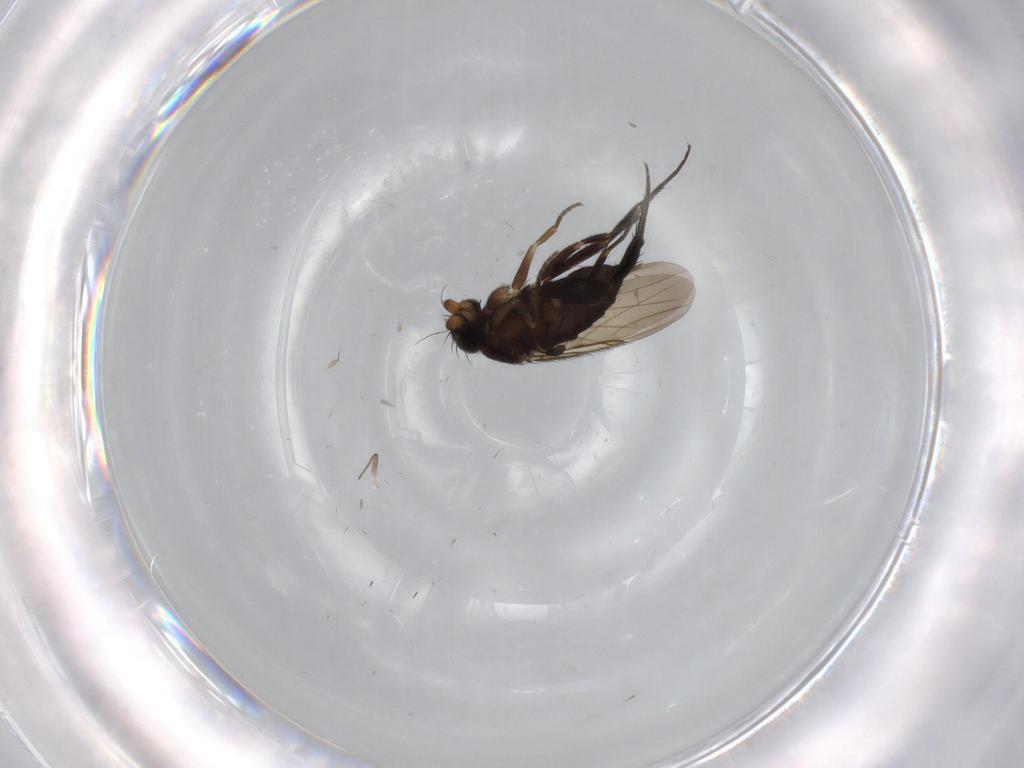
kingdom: Animalia
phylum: Arthropoda
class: Insecta
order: Diptera
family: Phoridae
